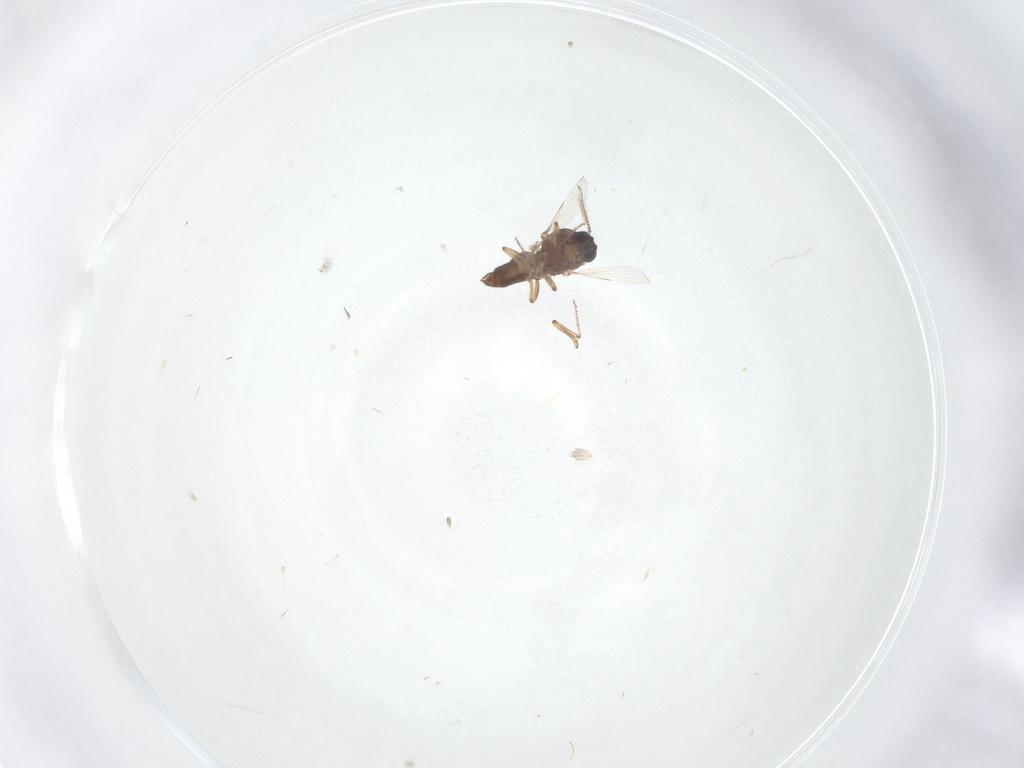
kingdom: Animalia
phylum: Arthropoda
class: Insecta
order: Diptera
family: Ceratopogonidae
